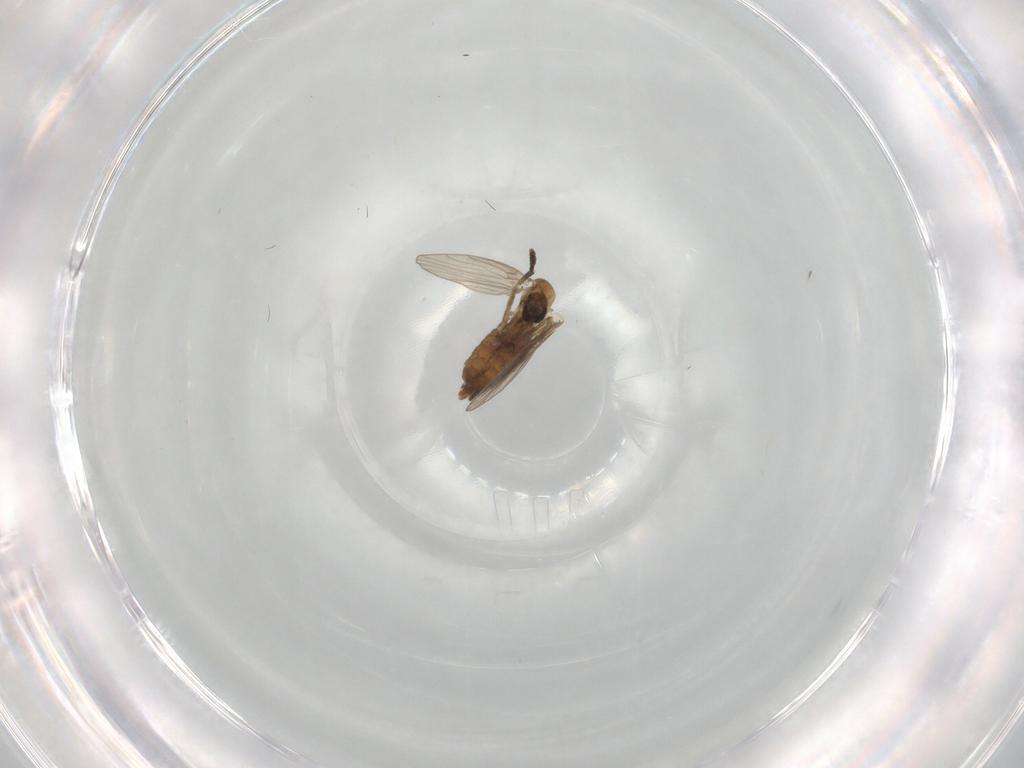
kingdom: Animalia
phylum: Arthropoda
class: Insecta
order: Diptera
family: Psychodidae
